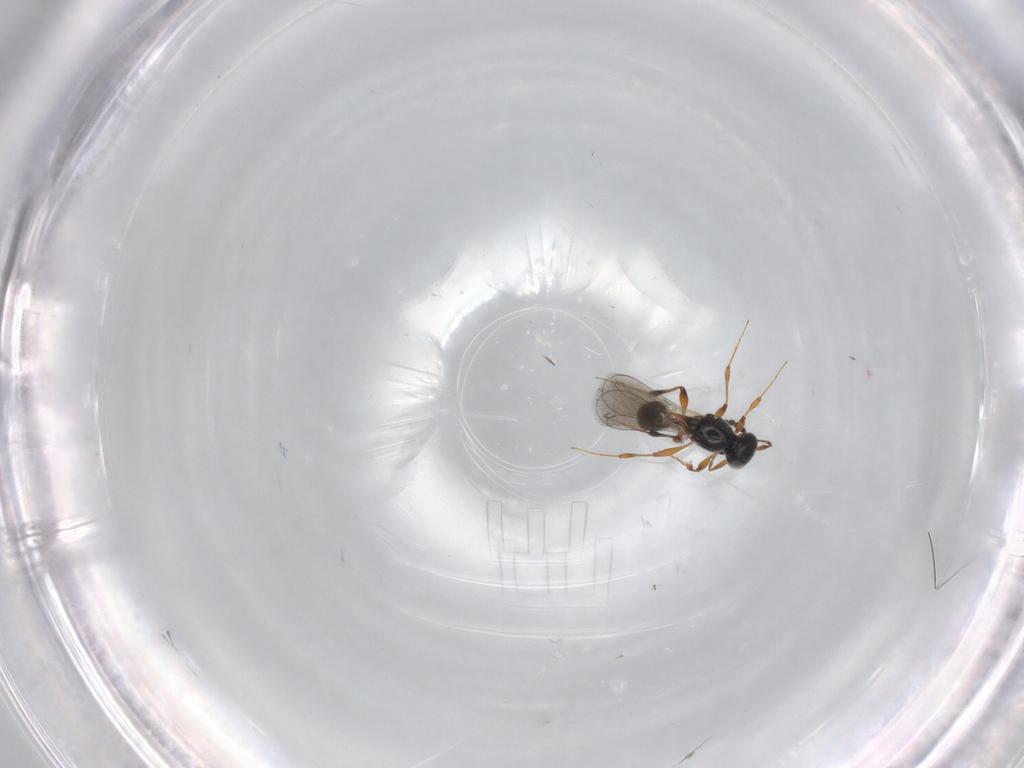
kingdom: Animalia
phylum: Arthropoda
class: Insecta
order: Hymenoptera
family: Platygastridae
